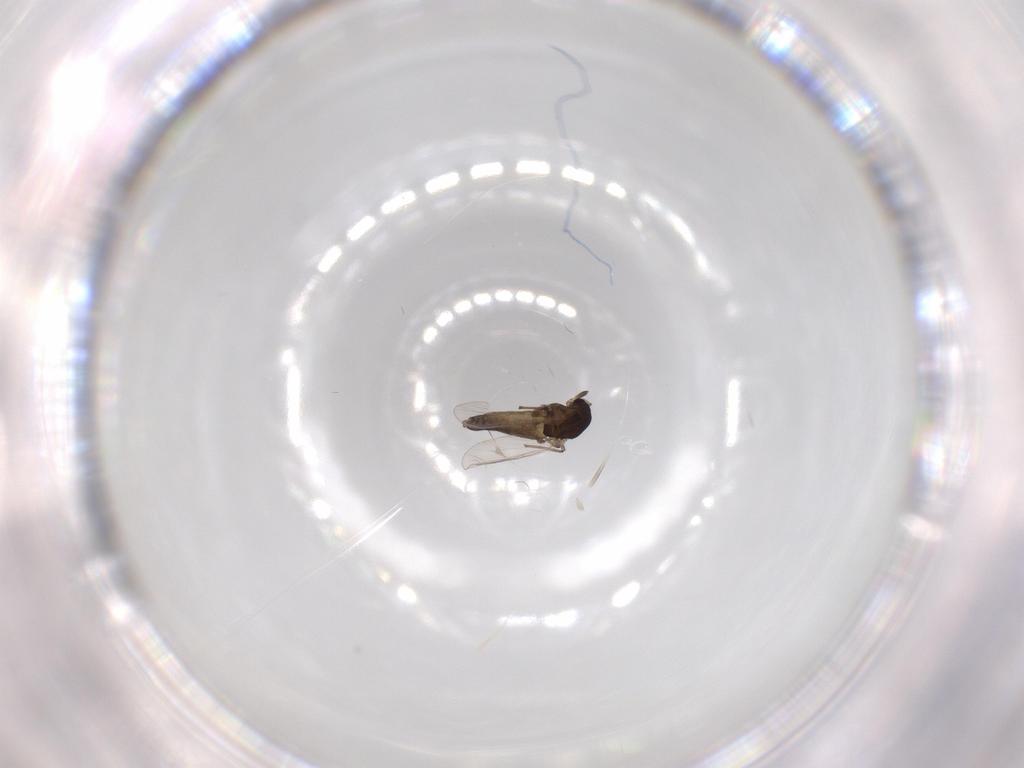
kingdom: Animalia
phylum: Arthropoda
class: Insecta
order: Diptera
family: Chironomidae
